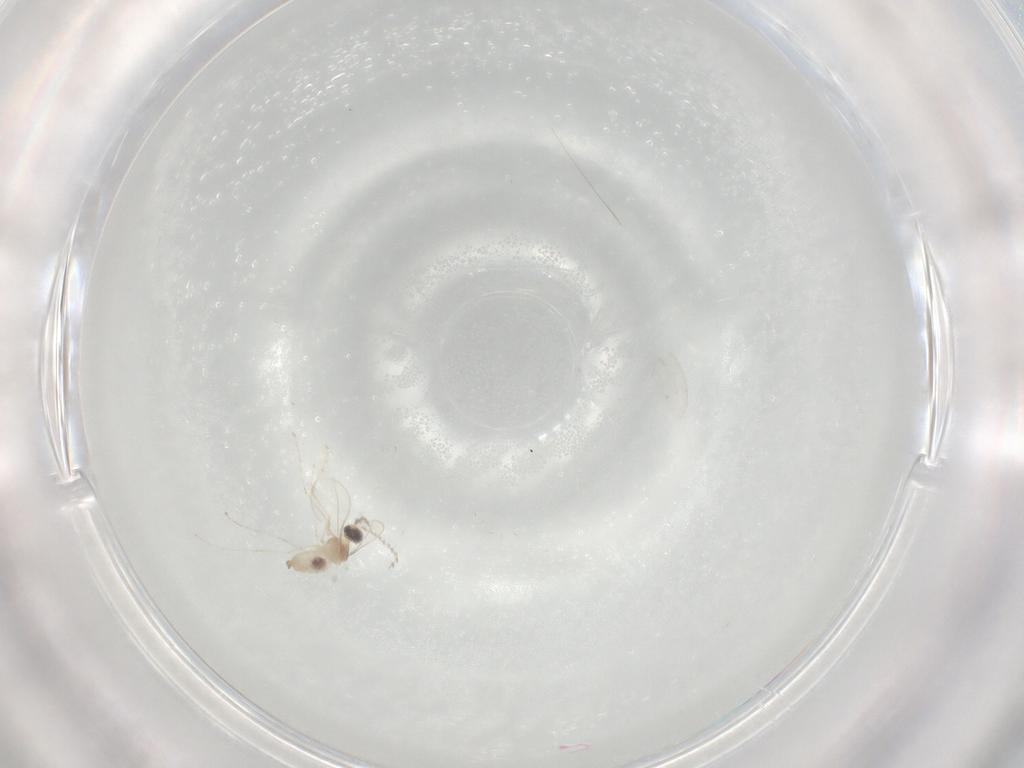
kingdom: Animalia
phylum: Arthropoda
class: Insecta
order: Diptera
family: Cecidomyiidae
